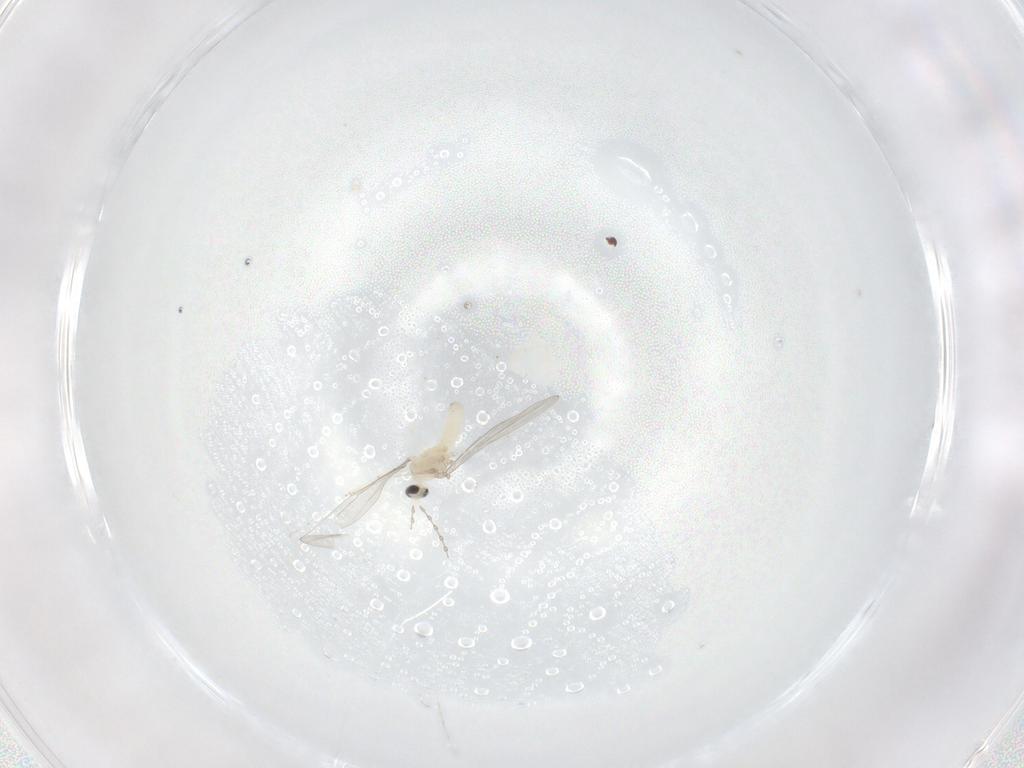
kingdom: Animalia
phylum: Arthropoda
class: Insecta
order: Diptera
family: Cecidomyiidae
